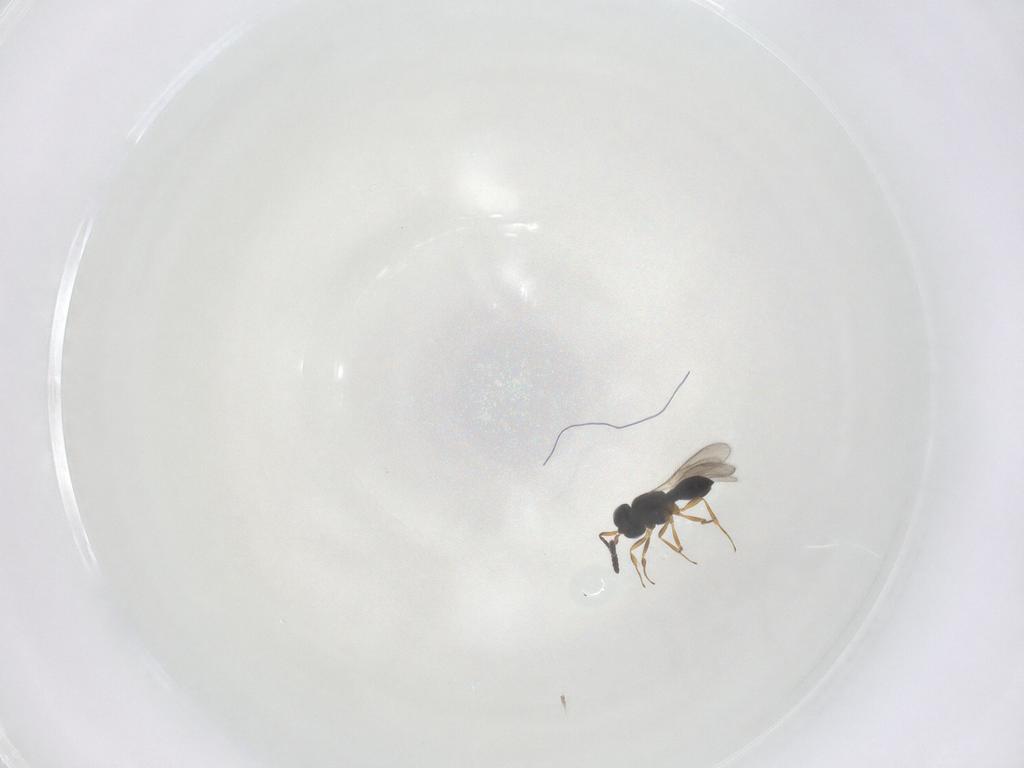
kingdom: Animalia
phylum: Arthropoda
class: Insecta
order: Hymenoptera
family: Scelionidae
